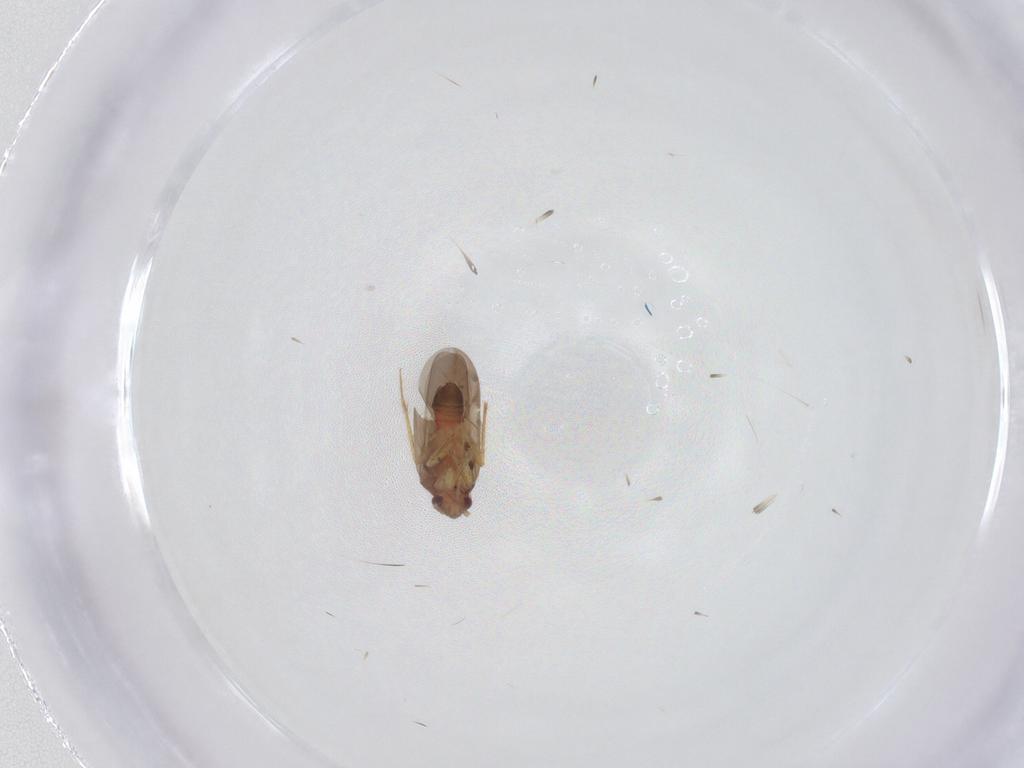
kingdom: Animalia
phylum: Arthropoda
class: Insecta
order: Hemiptera
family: Ceratocombidae
